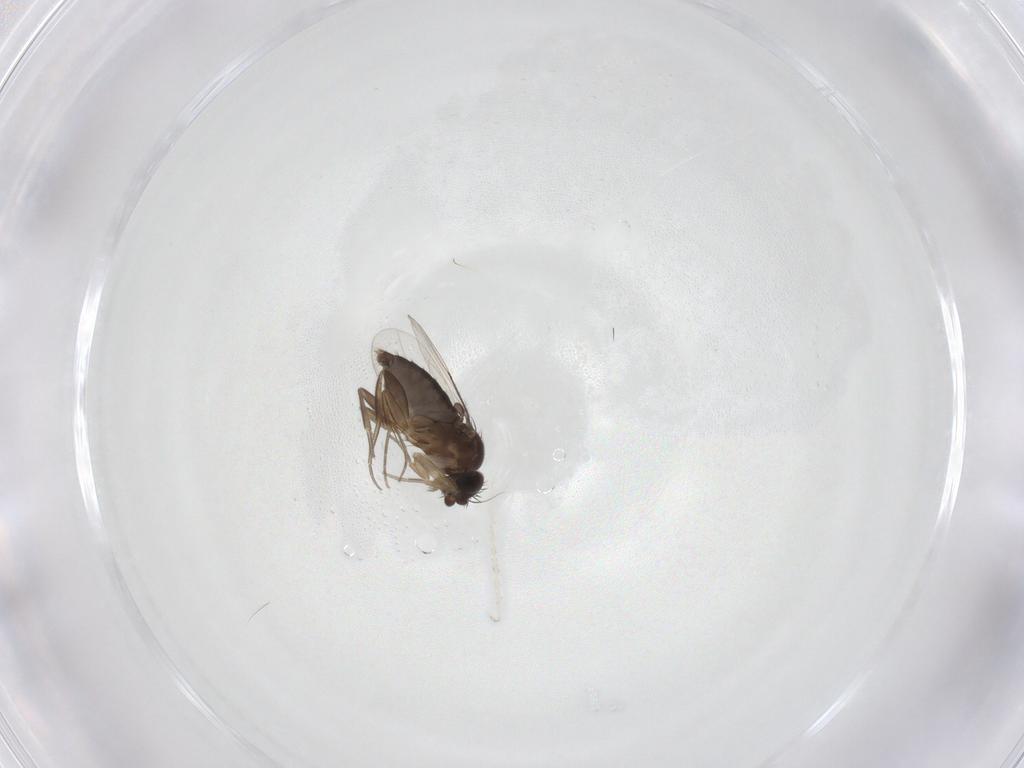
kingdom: Animalia
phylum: Arthropoda
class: Insecta
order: Diptera
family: Phoridae
